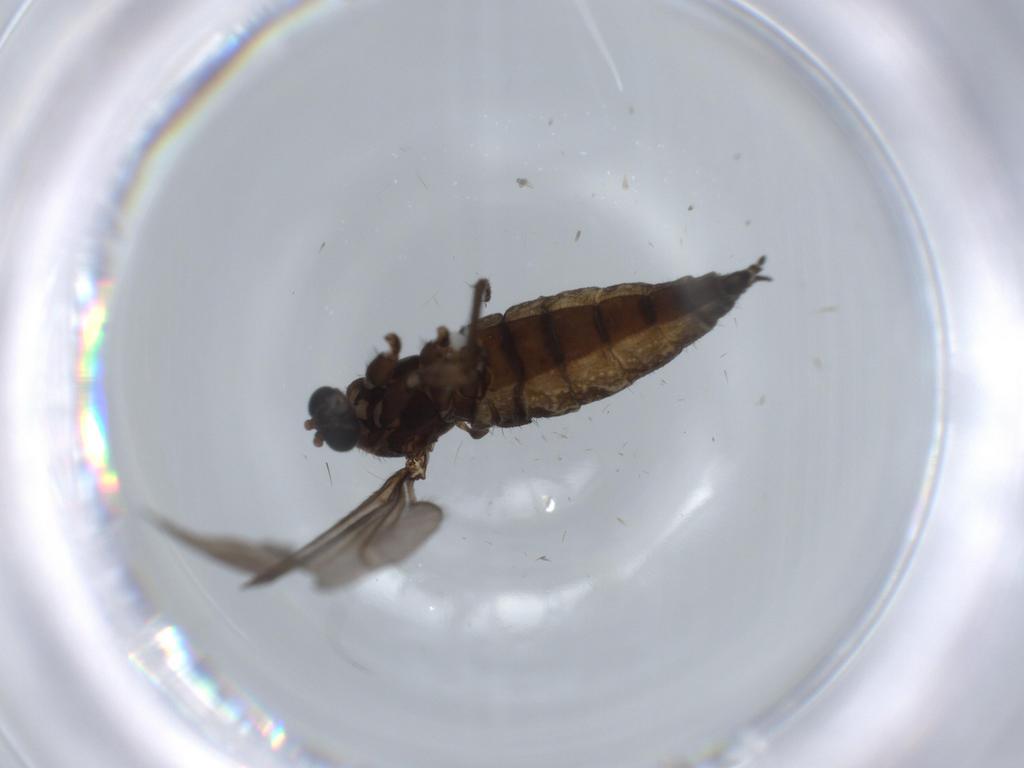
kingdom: Animalia
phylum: Arthropoda
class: Insecta
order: Diptera
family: Sciaridae
